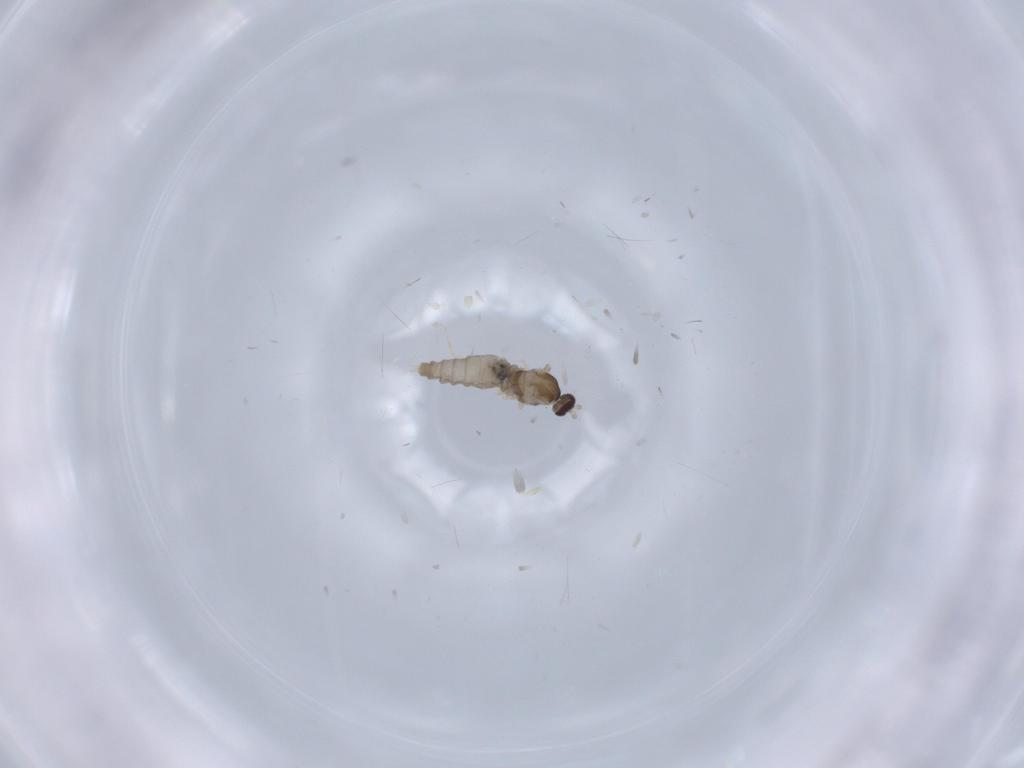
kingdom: Animalia
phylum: Arthropoda
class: Insecta
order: Diptera
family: Cecidomyiidae
